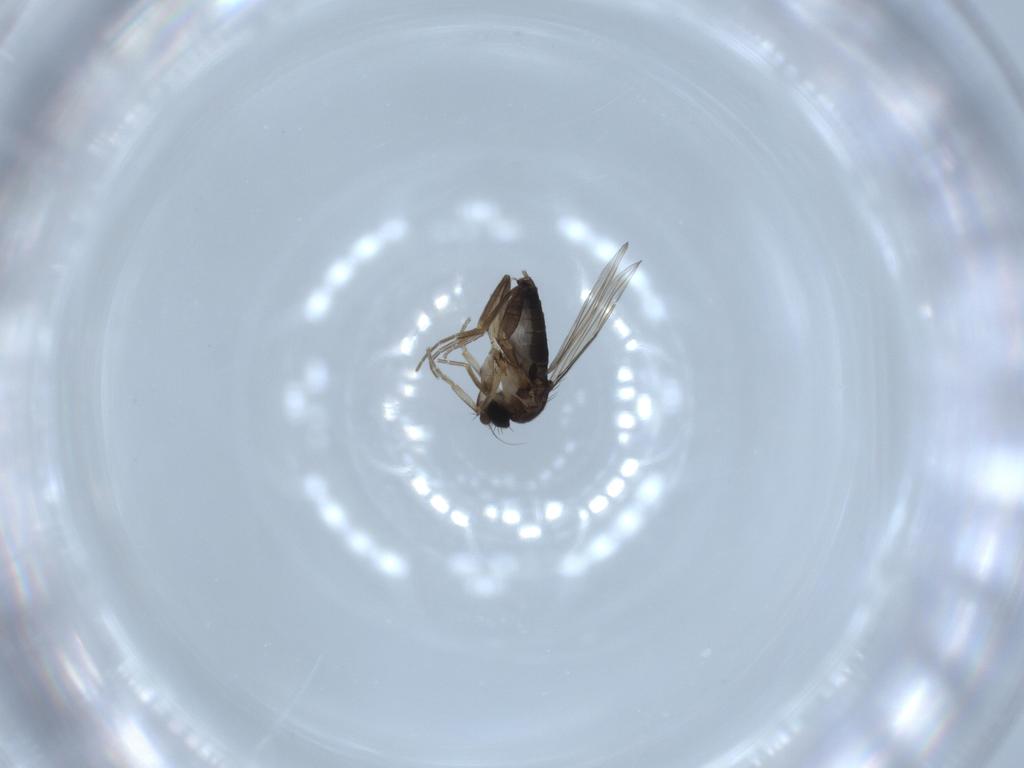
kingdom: Animalia
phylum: Arthropoda
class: Insecta
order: Diptera
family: Phoridae
